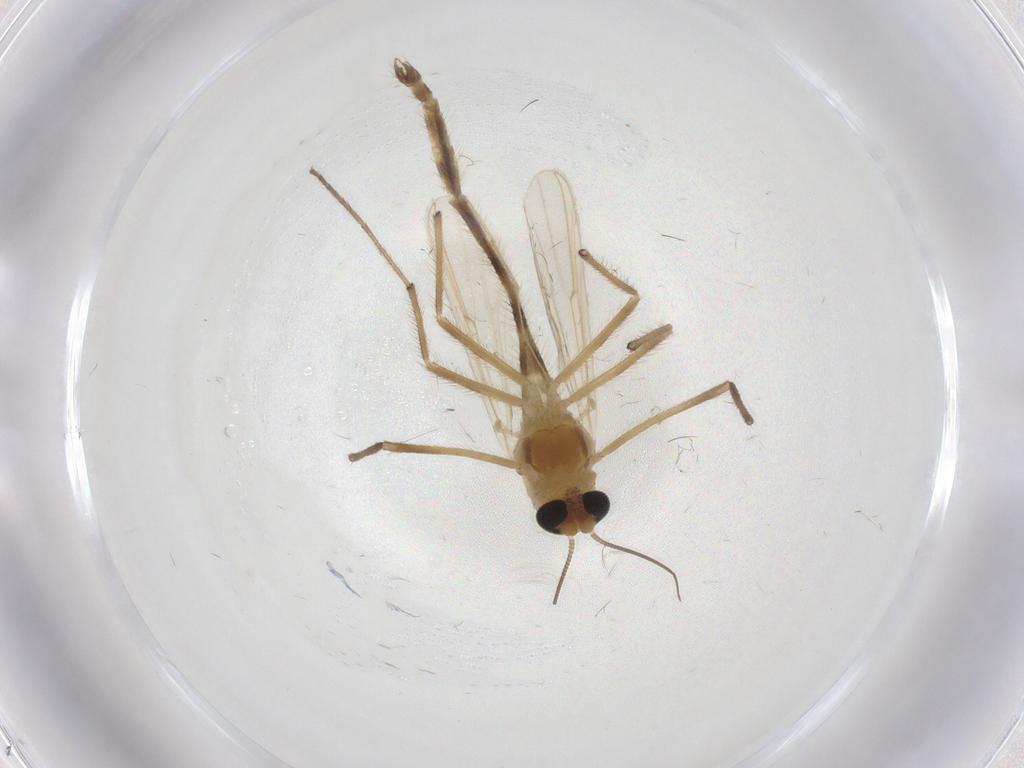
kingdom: Animalia
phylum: Arthropoda
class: Insecta
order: Diptera
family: Chironomidae
